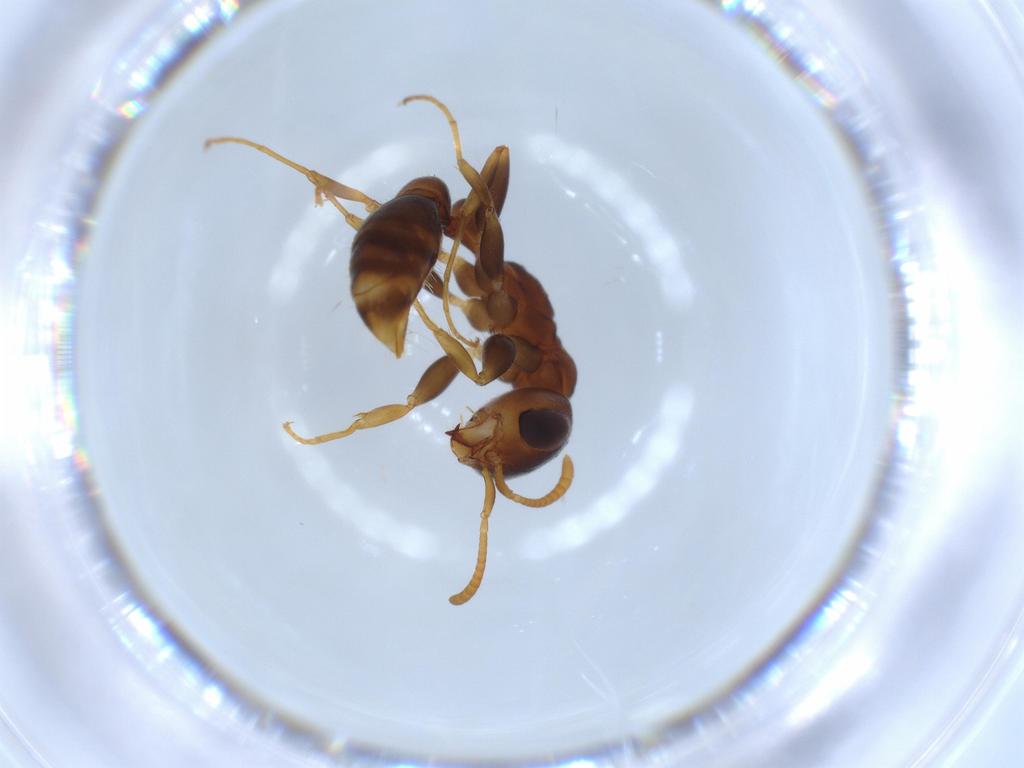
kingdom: Animalia
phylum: Arthropoda
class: Insecta
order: Hymenoptera
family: Formicidae
